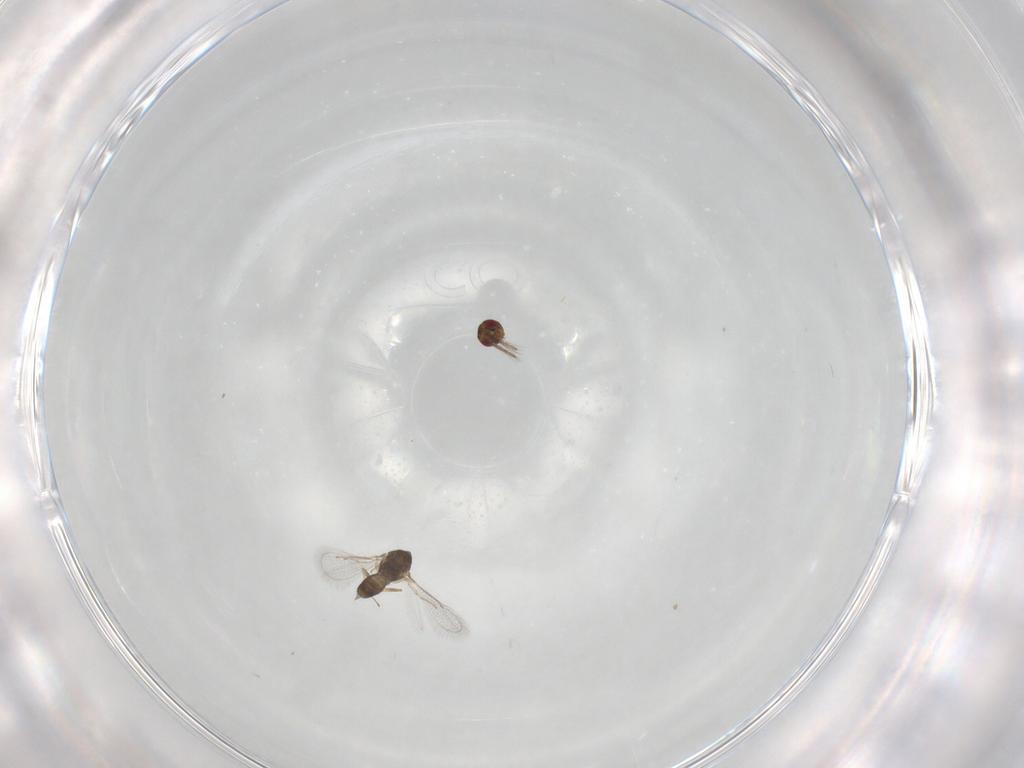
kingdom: Animalia
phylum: Arthropoda
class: Insecta
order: Hymenoptera
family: Eulophidae
